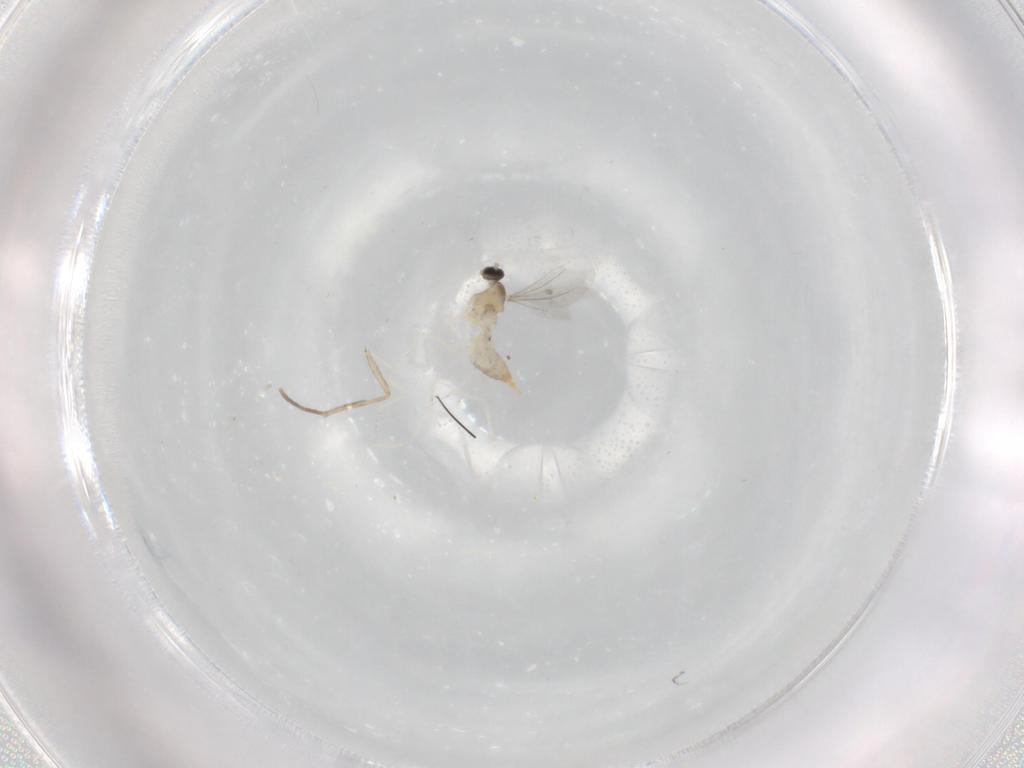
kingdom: Animalia
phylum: Arthropoda
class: Insecta
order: Diptera
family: Cecidomyiidae
